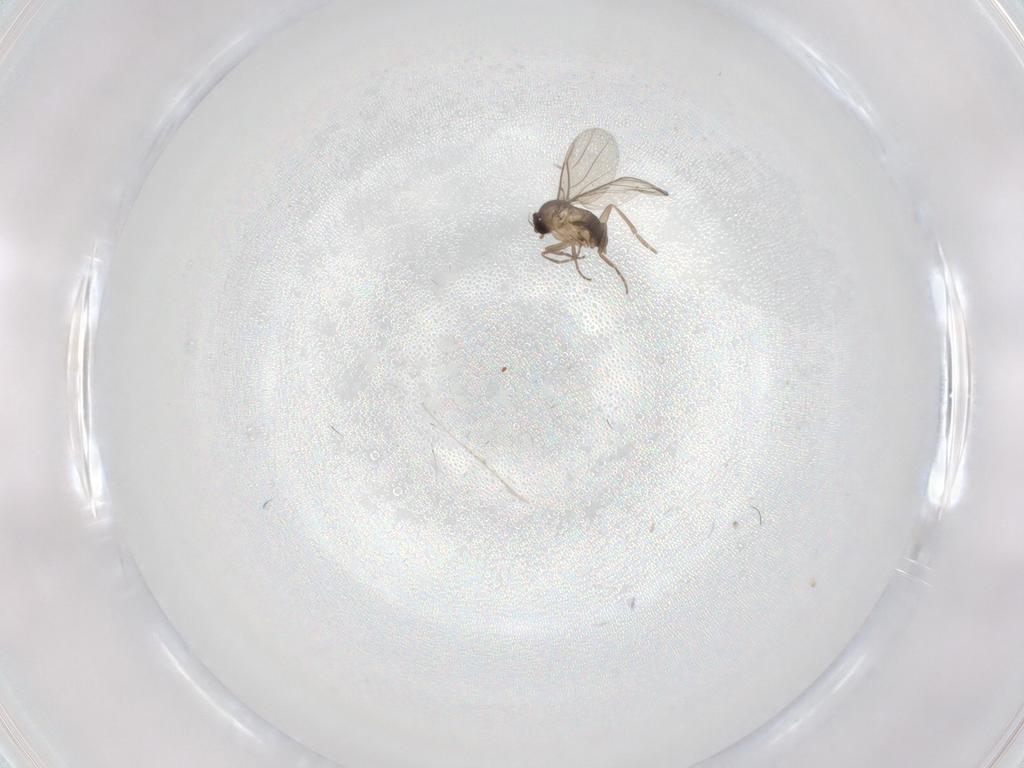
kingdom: Animalia
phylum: Arthropoda
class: Insecta
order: Diptera
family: Phoridae
